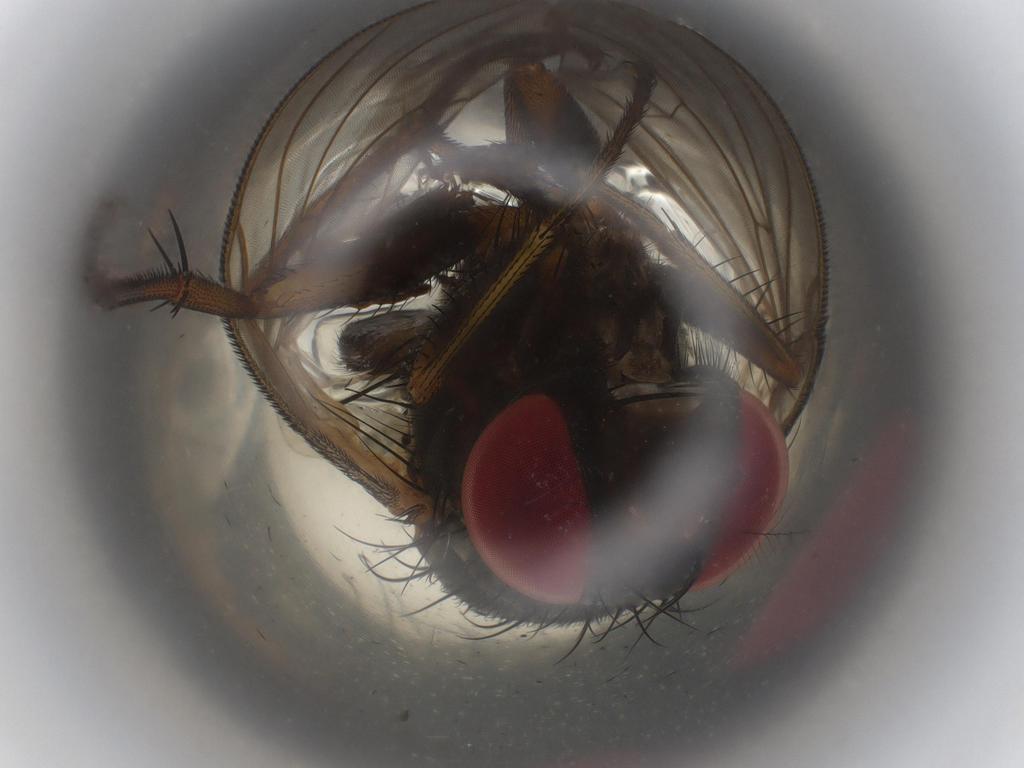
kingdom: Animalia
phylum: Arthropoda
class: Insecta
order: Diptera
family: Muscidae
